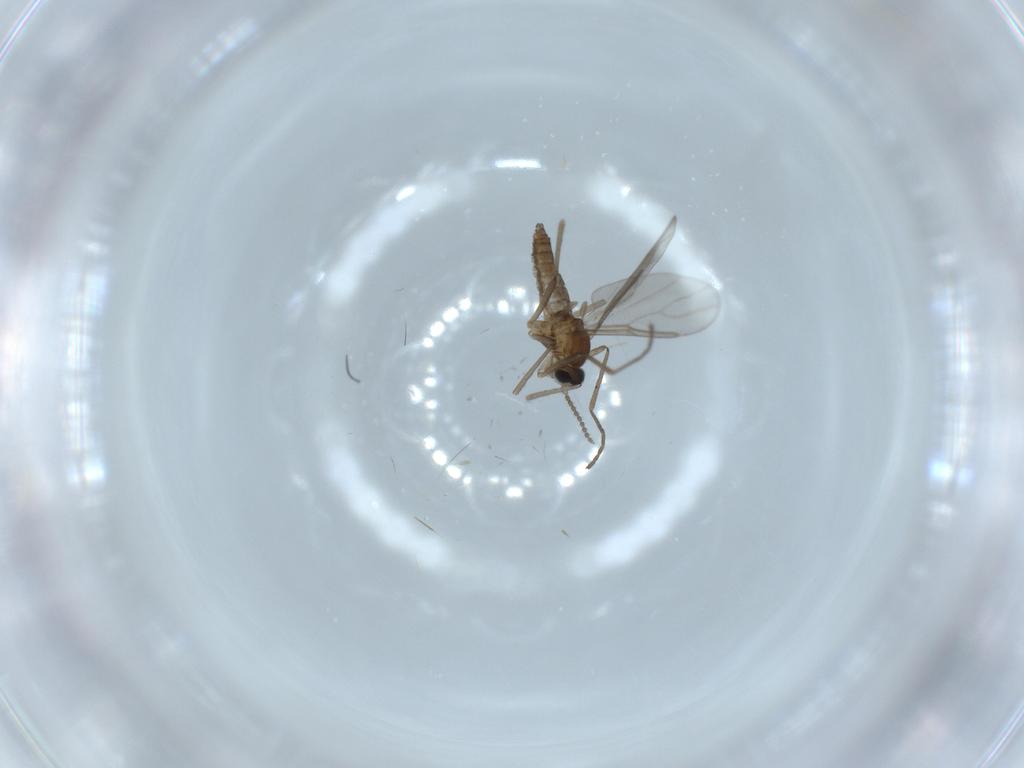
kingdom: Animalia
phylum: Arthropoda
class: Insecta
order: Diptera
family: Cecidomyiidae
